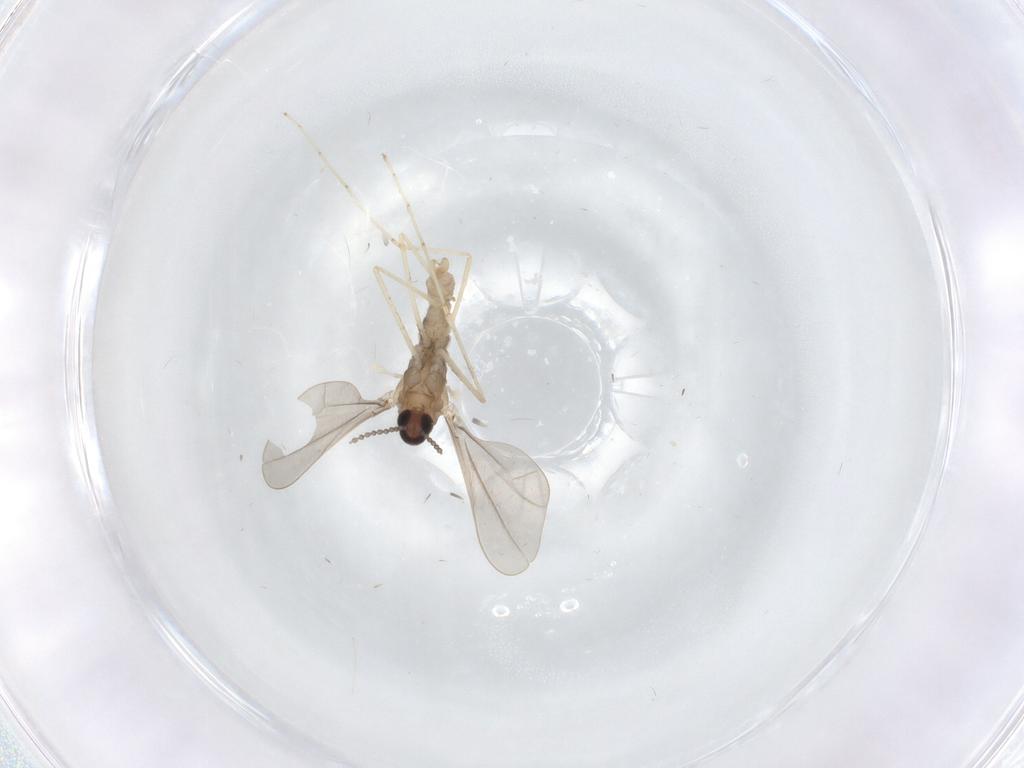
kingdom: Animalia
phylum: Arthropoda
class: Insecta
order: Diptera
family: Cecidomyiidae
